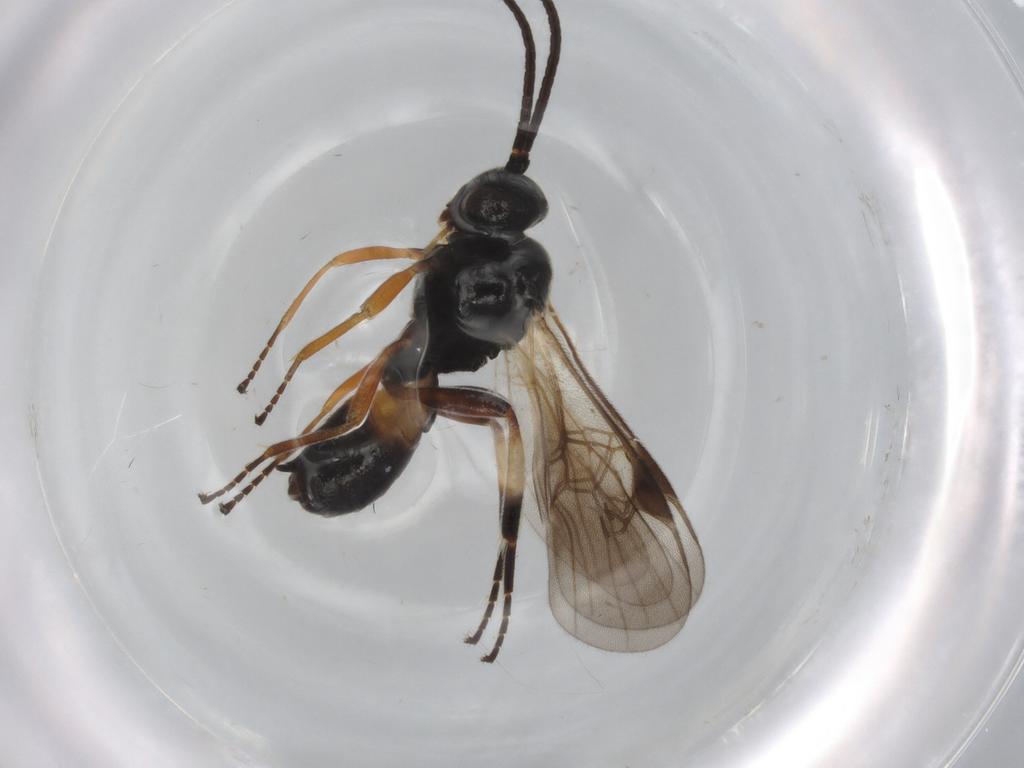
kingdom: Animalia
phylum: Arthropoda
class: Insecta
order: Hymenoptera
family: Braconidae
